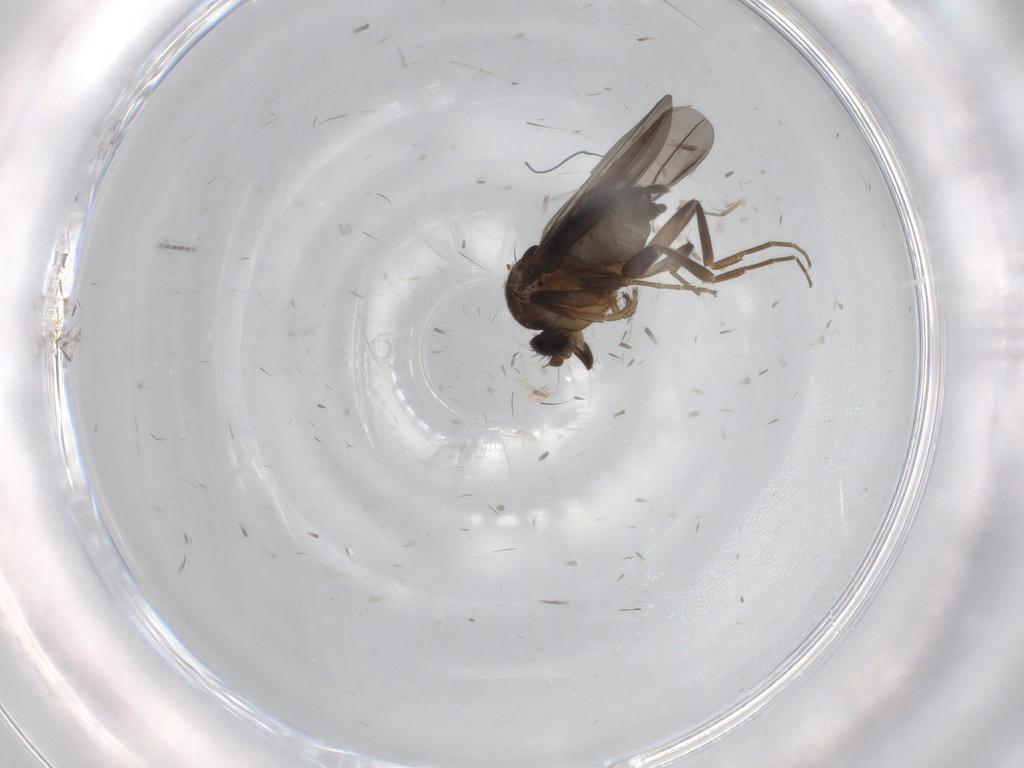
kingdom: Animalia
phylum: Arthropoda
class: Insecta
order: Diptera
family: Phoridae
